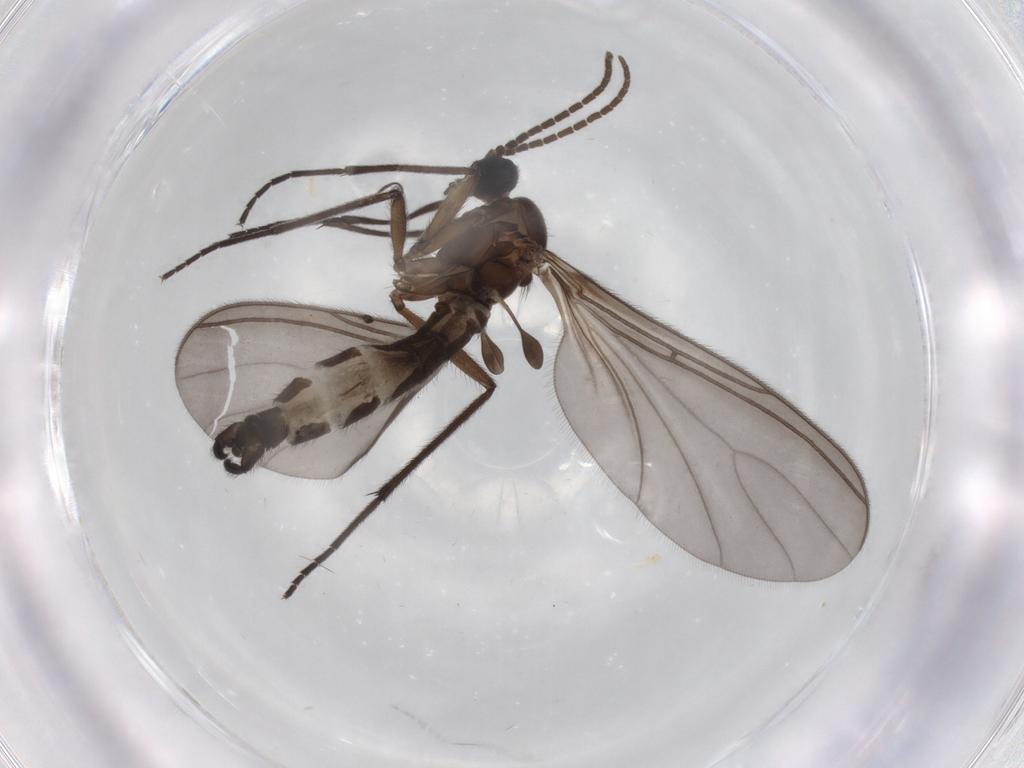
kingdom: Animalia
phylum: Arthropoda
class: Insecta
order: Diptera
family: Sciaridae
